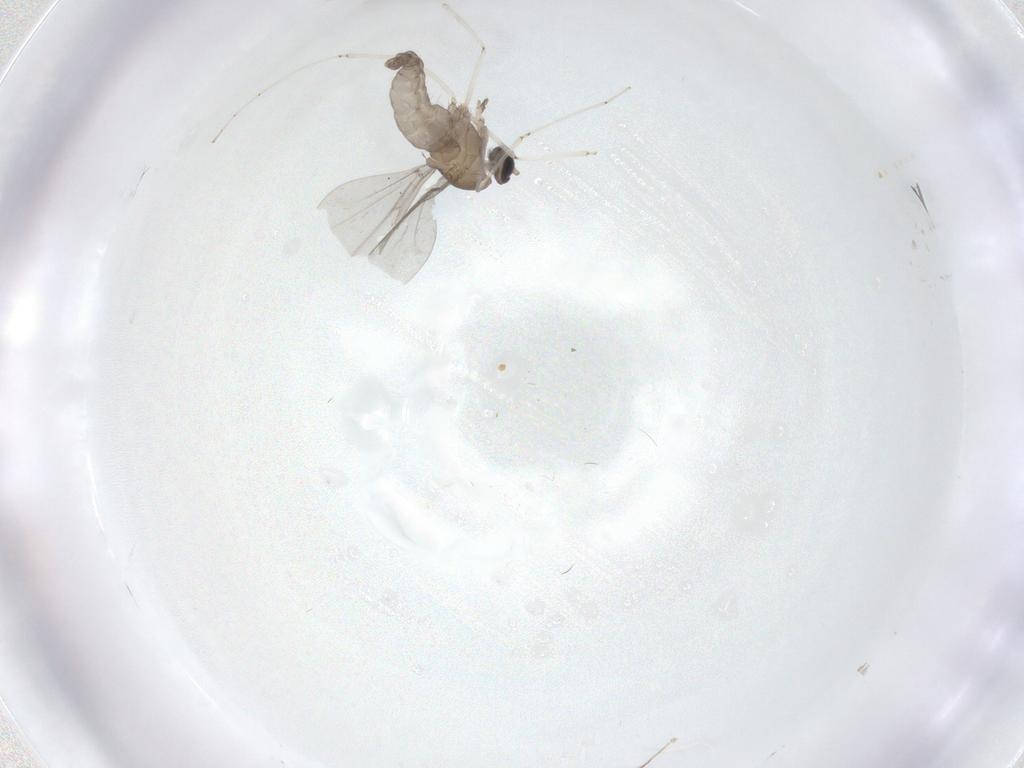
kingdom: Animalia
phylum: Arthropoda
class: Insecta
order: Diptera
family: Cecidomyiidae
